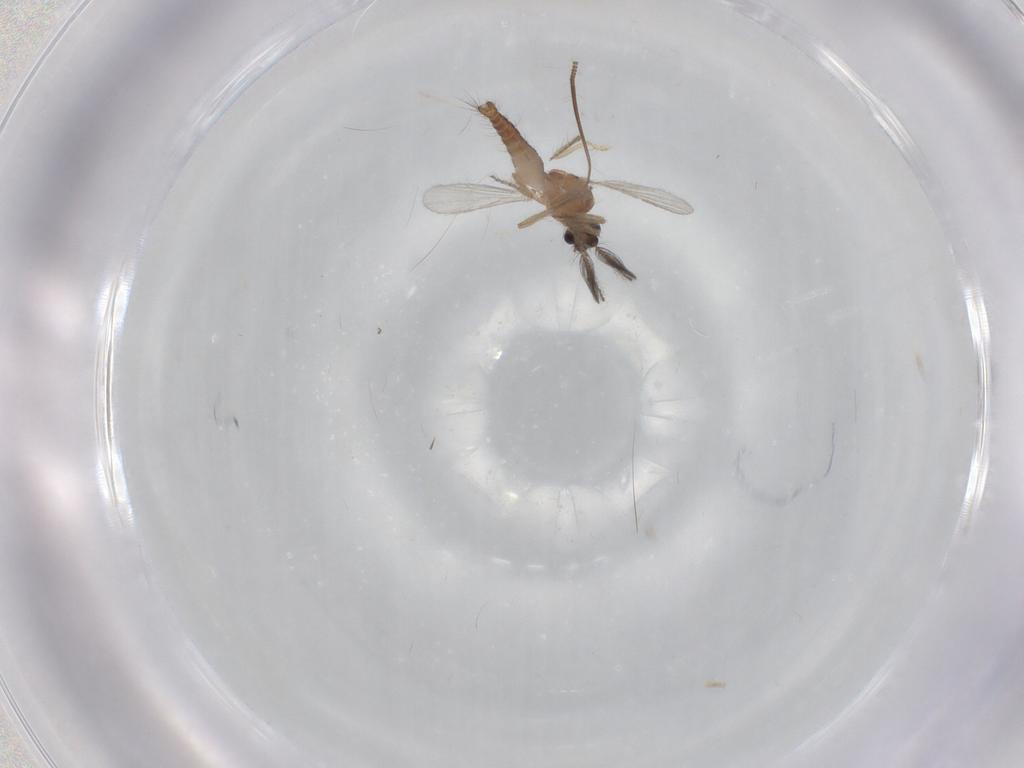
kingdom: Animalia
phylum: Arthropoda
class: Insecta
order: Diptera
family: Ceratopogonidae
